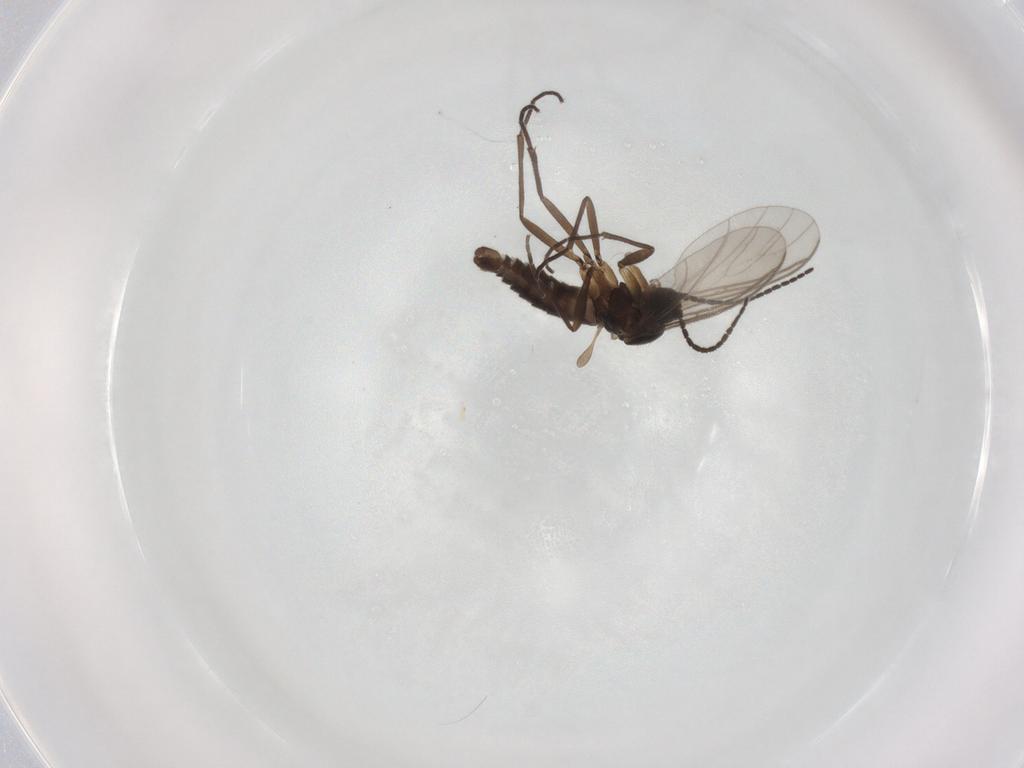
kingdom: Animalia
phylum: Arthropoda
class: Insecta
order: Diptera
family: Sciaridae
